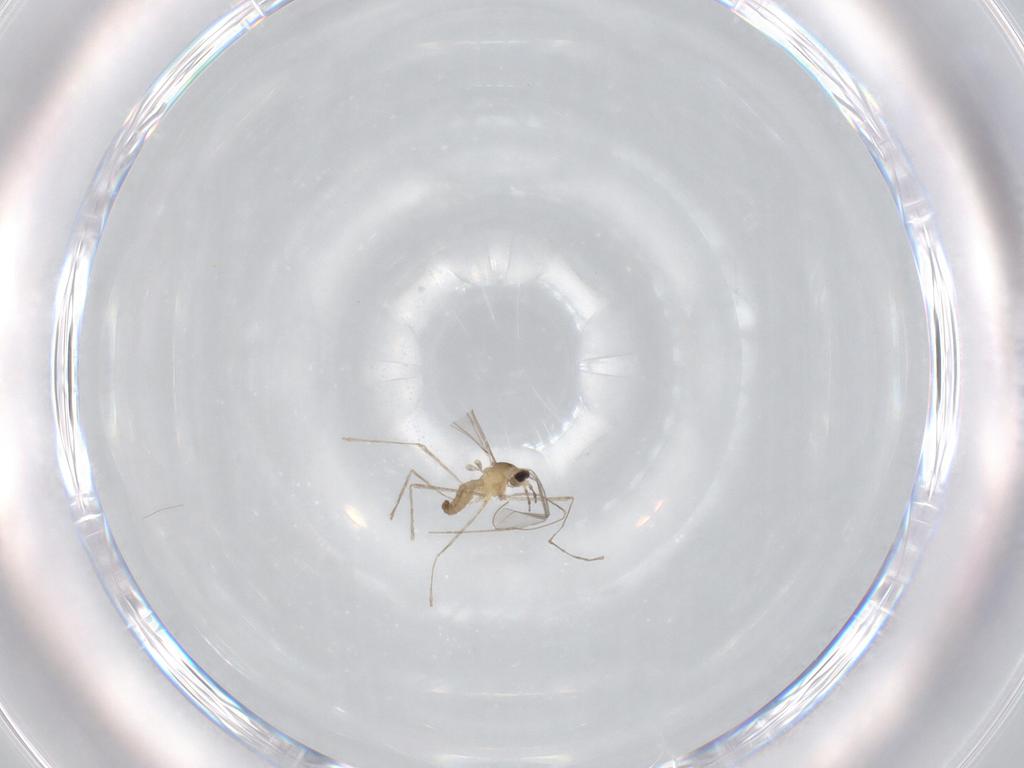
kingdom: Animalia
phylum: Arthropoda
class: Insecta
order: Diptera
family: Cecidomyiidae
